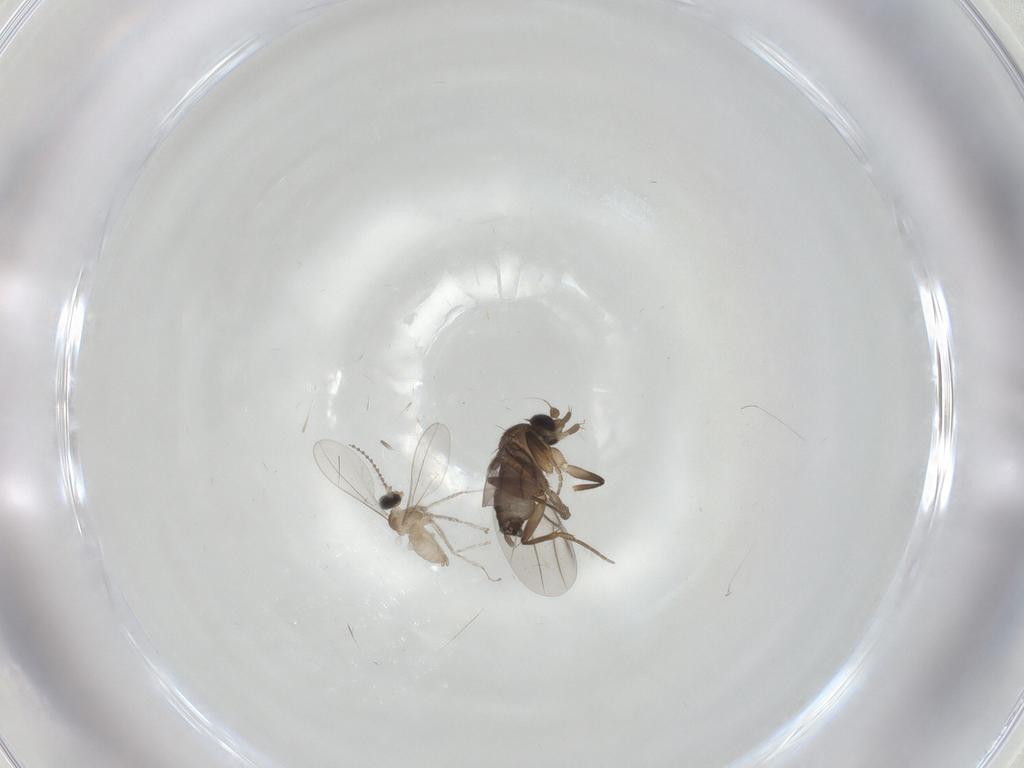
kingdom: Animalia
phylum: Arthropoda
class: Insecta
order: Diptera
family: Phoridae
